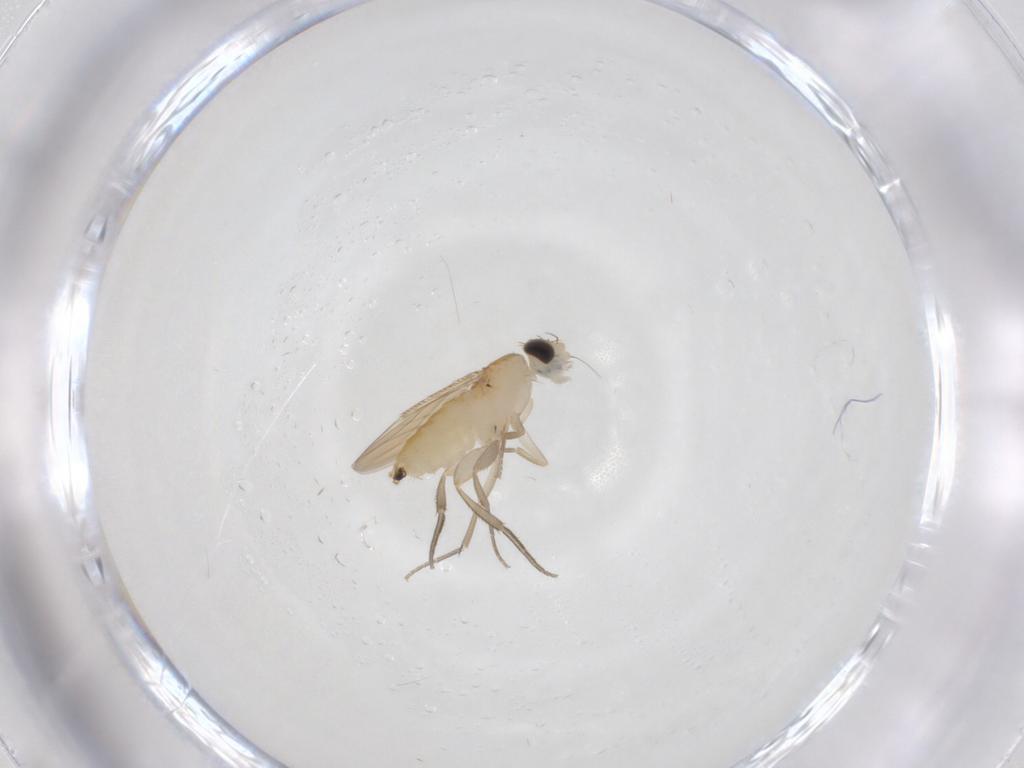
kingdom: Animalia
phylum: Arthropoda
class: Insecta
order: Diptera
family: Phoridae
